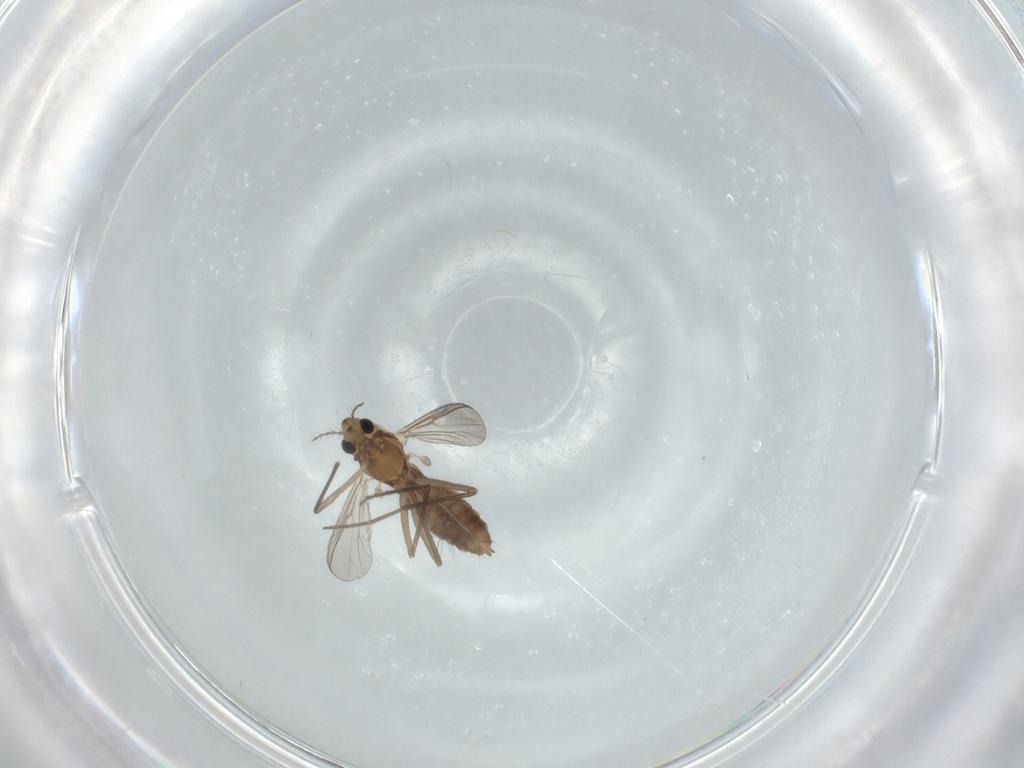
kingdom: Animalia
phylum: Arthropoda
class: Insecta
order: Diptera
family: Chironomidae
